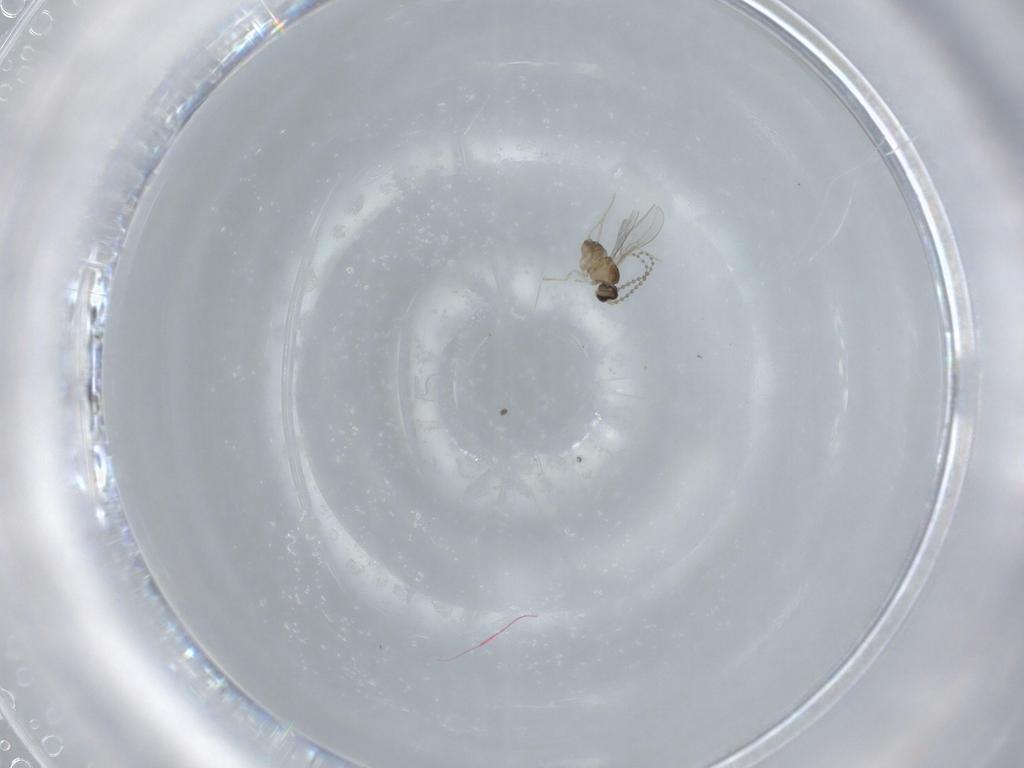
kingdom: Animalia
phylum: Arthropoda
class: Insecta
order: Diptera
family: Cecidomyiidae
